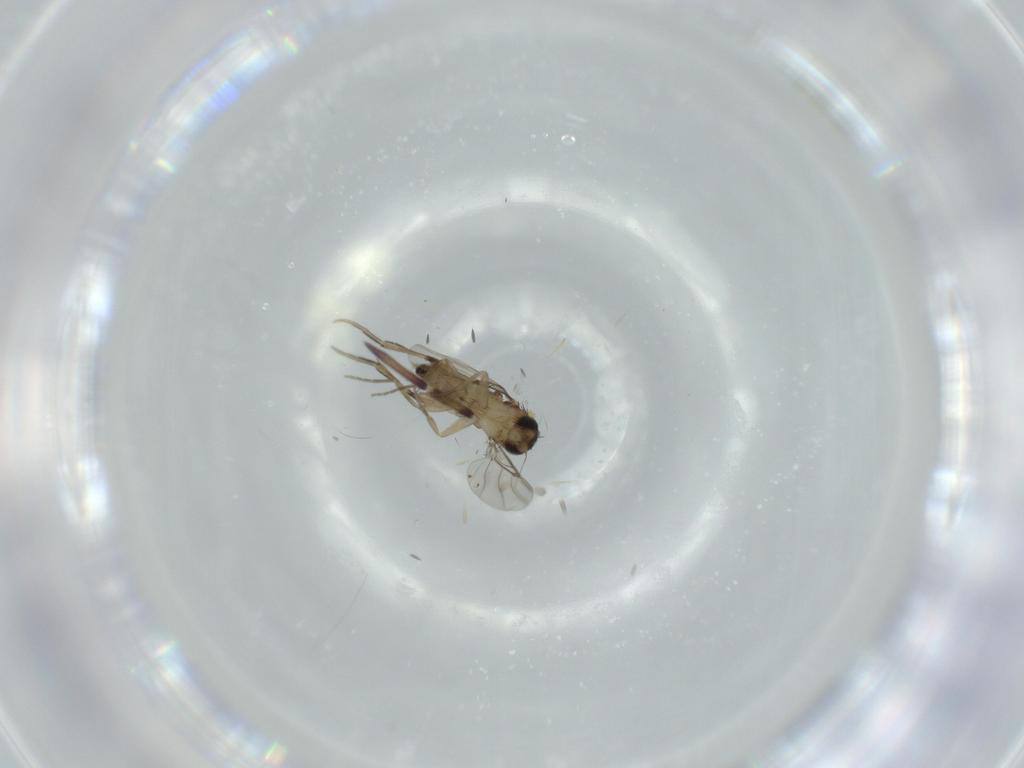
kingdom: Animalia
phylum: Arthropoda
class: Insecta
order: Diptera
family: Phoridae
